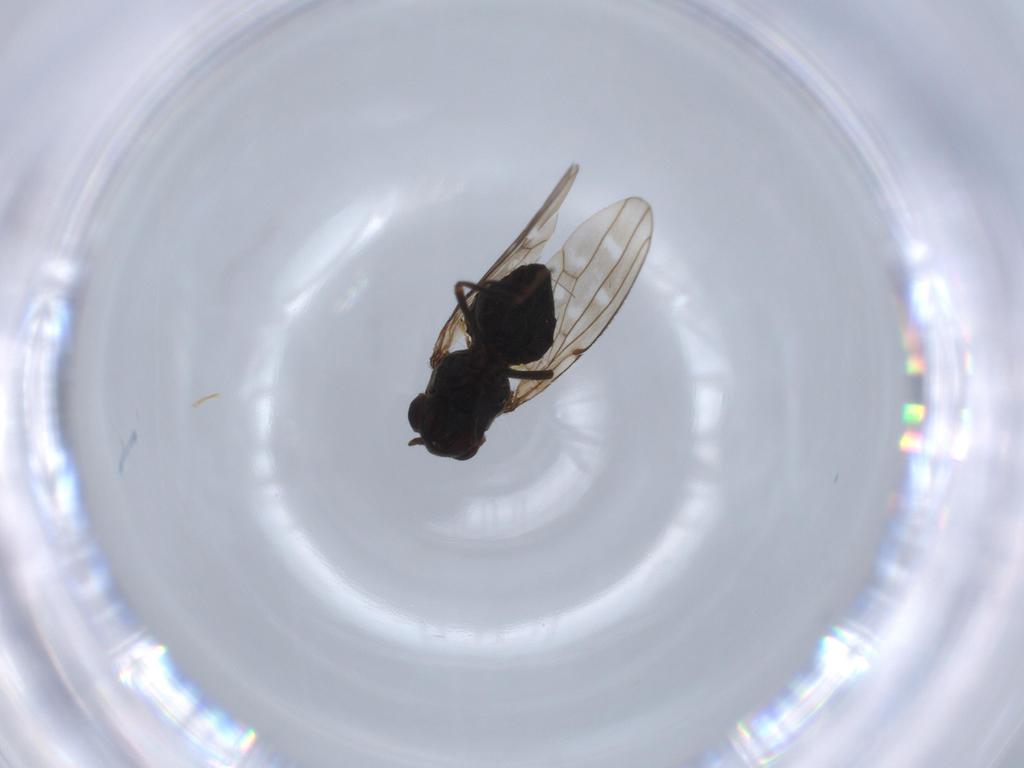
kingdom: Animalia
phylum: Arthropoda
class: Insecta
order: Diptera
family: Ephydridae
